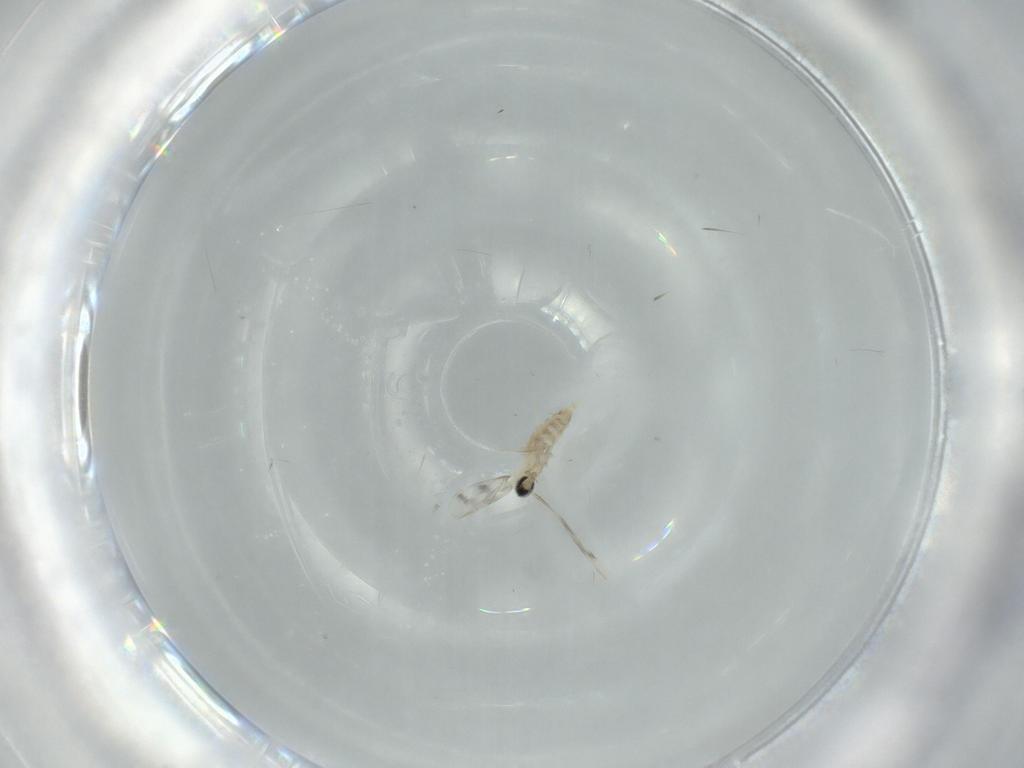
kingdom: Animalia
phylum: Arthropoda
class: Insecta
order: Diptera
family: Cecidomyiidae
